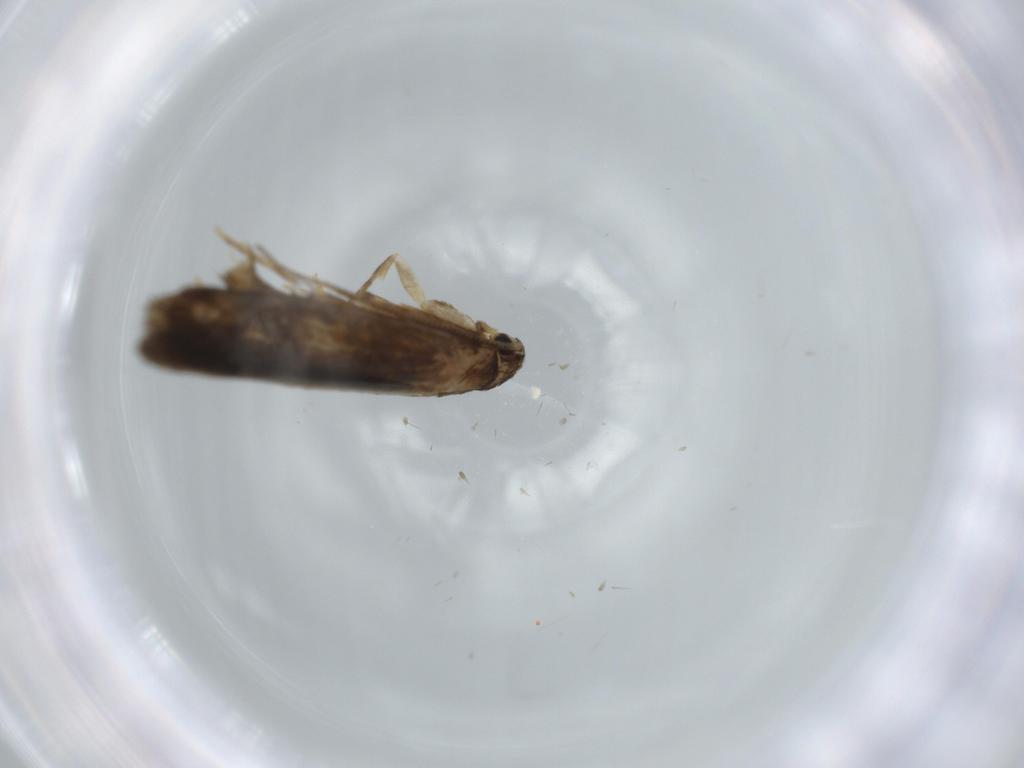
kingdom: Animalia
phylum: Arthropoda
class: Insecta
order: Lepidoptera
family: Tineidae
